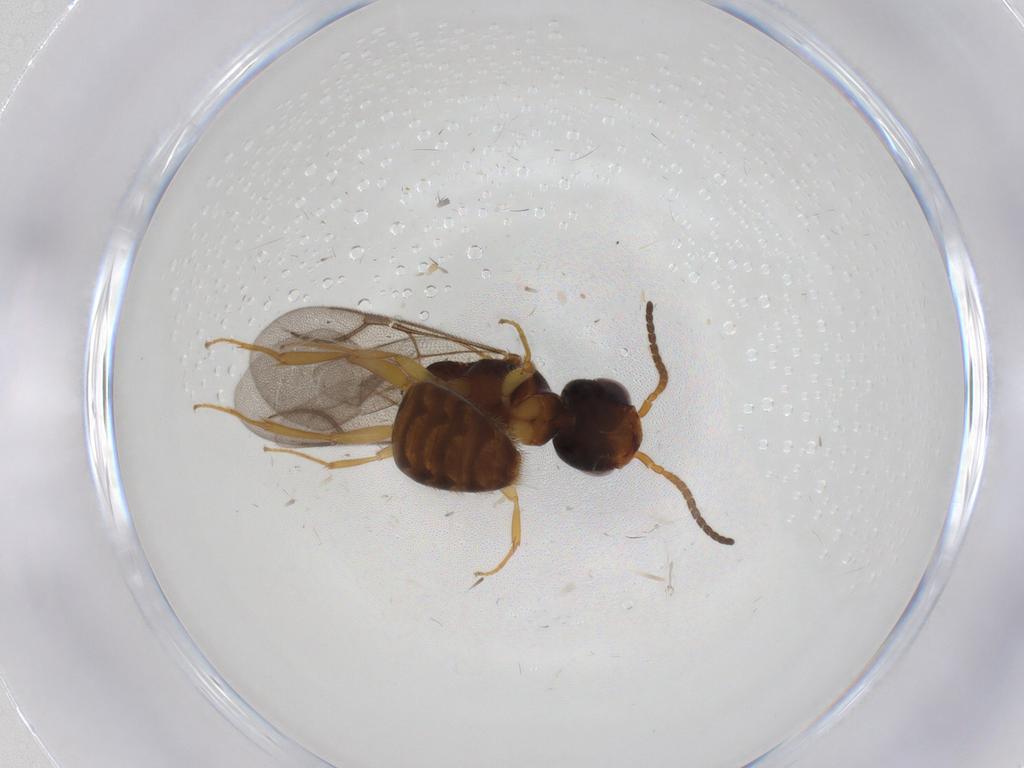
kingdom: Animalia
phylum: Arthropoda
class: Insecta
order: Hymenoptera
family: Bethylidae
